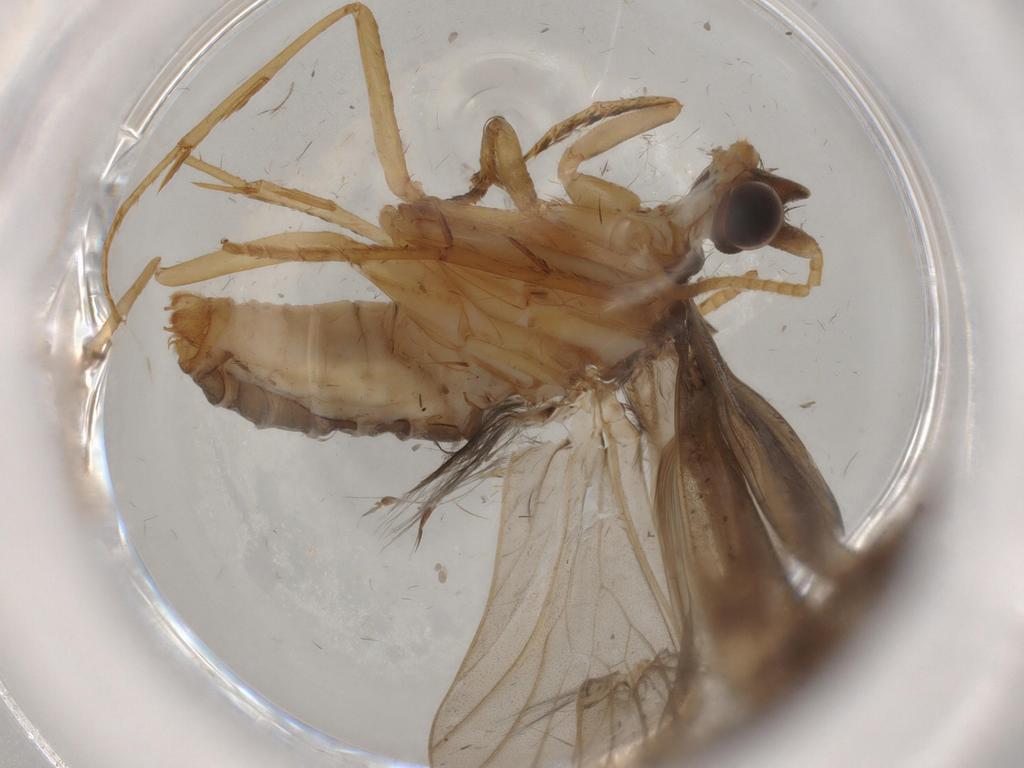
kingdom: Animalia
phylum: Arthropoda
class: Insecta
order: Trichoptera
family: Lepidostomatidae
